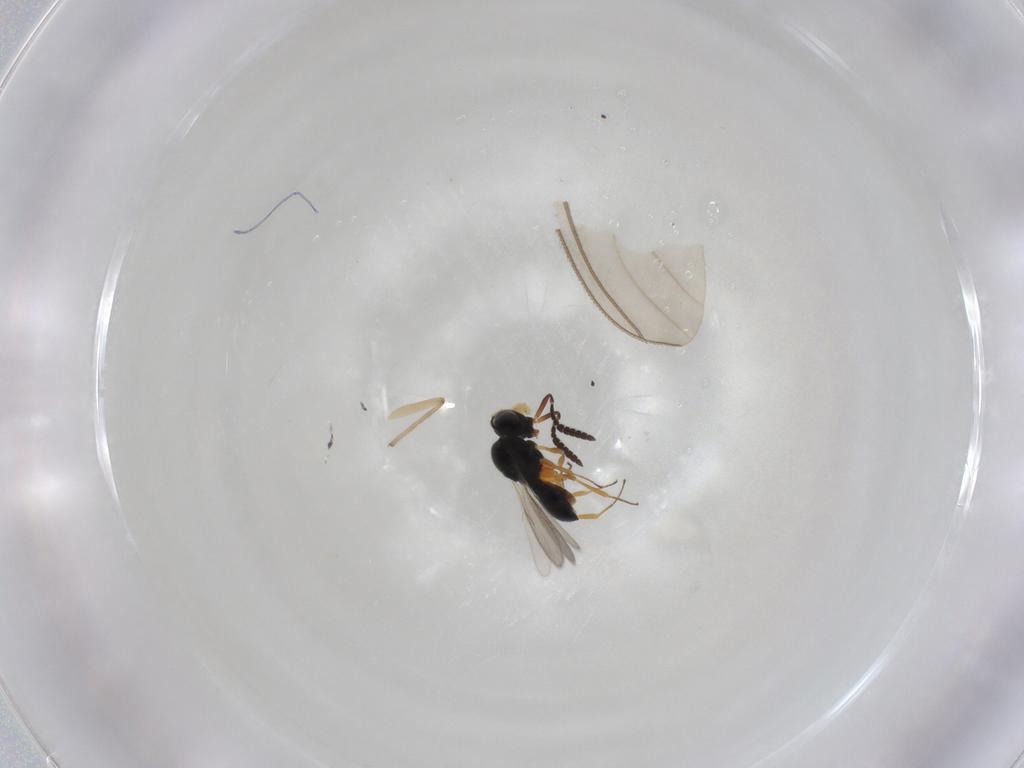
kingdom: Animalia
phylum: Arthropoda
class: Insecta
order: Hymenoptera
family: Scelionidae
